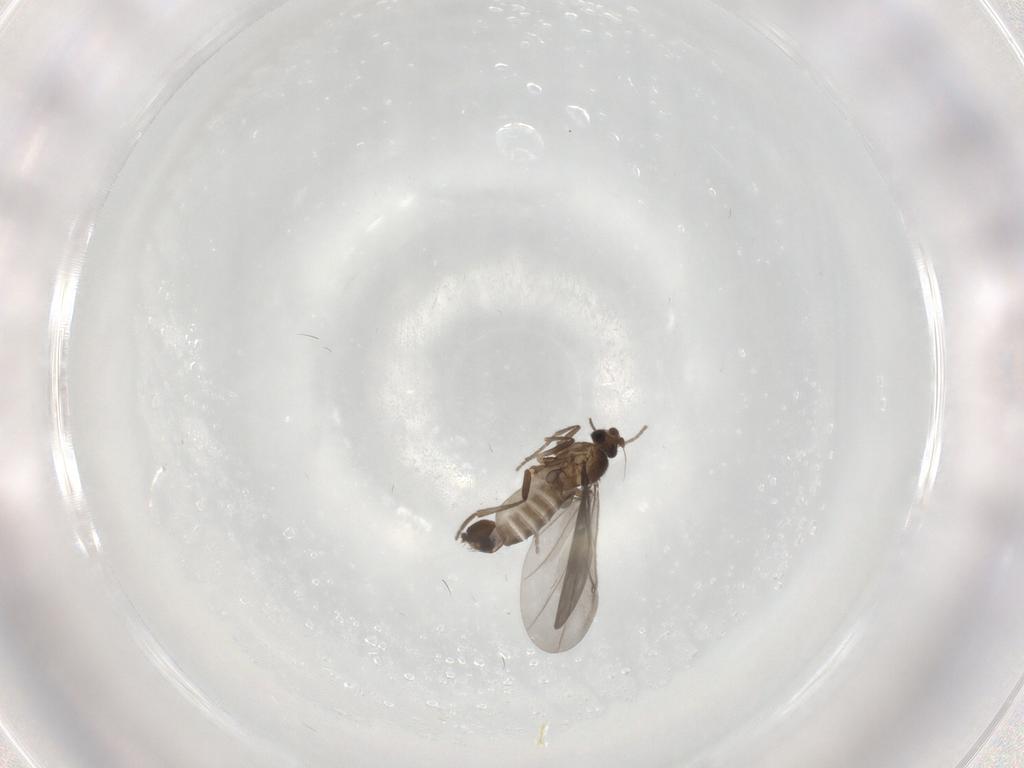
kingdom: Animalia
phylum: Arthropoda
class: Insecta
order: Diptera
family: Phoridae
